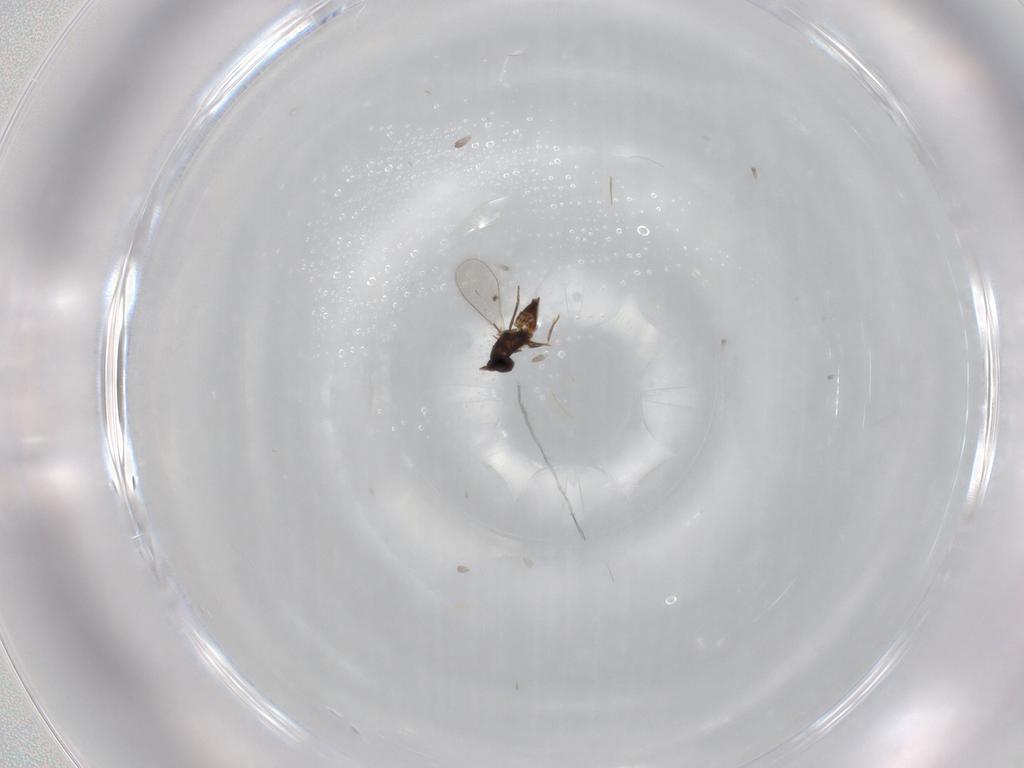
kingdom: Animalia
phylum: Arthropoda
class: Insecta
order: Hymenoptera
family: Mymaridae
